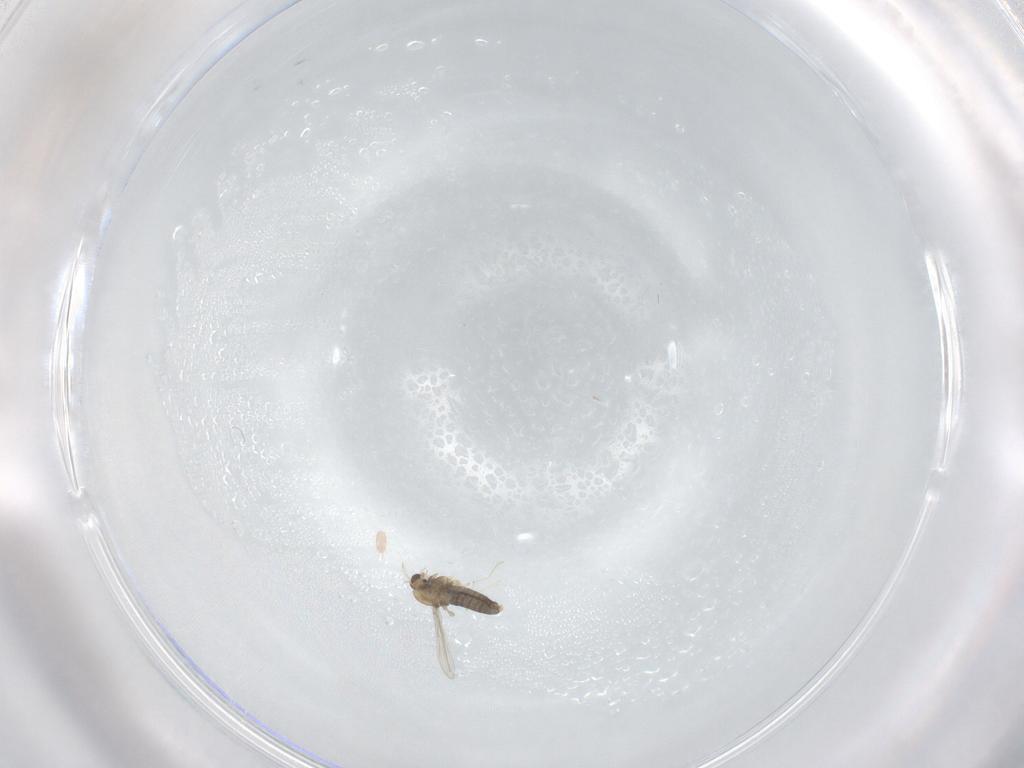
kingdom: Animalia
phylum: Arthropoda
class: Insecta
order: Diptera
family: Chironomidae
